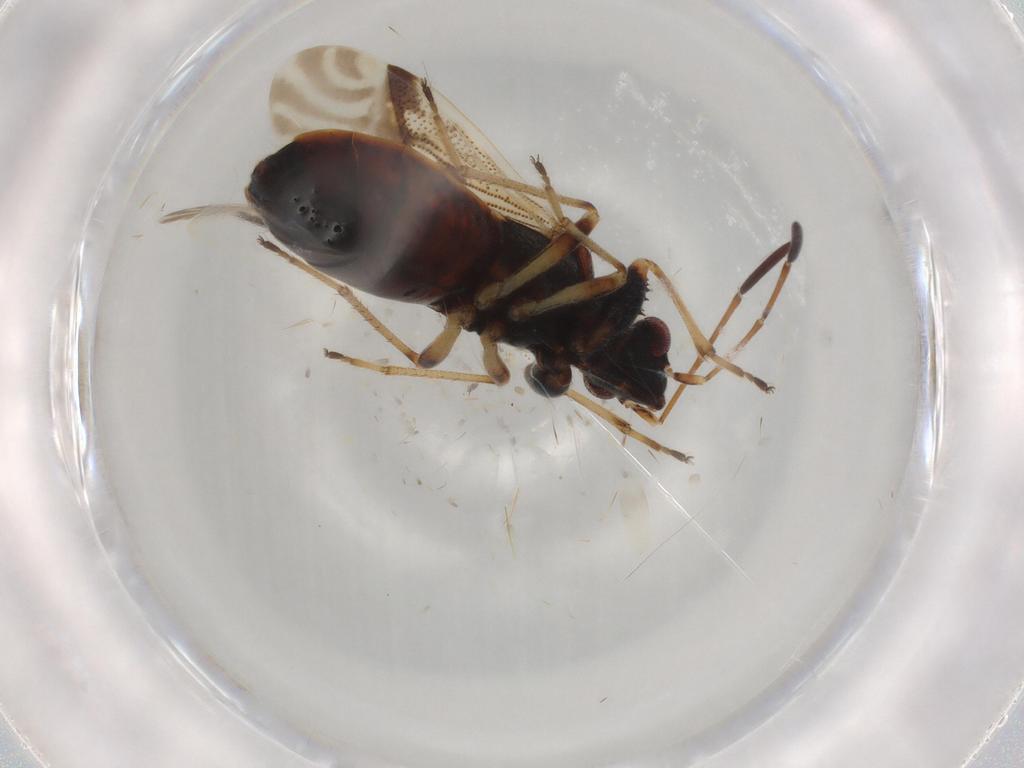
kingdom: Animalia
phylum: Arthropoda
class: Insecta
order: Hemiptera
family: Rhyparochromidae
